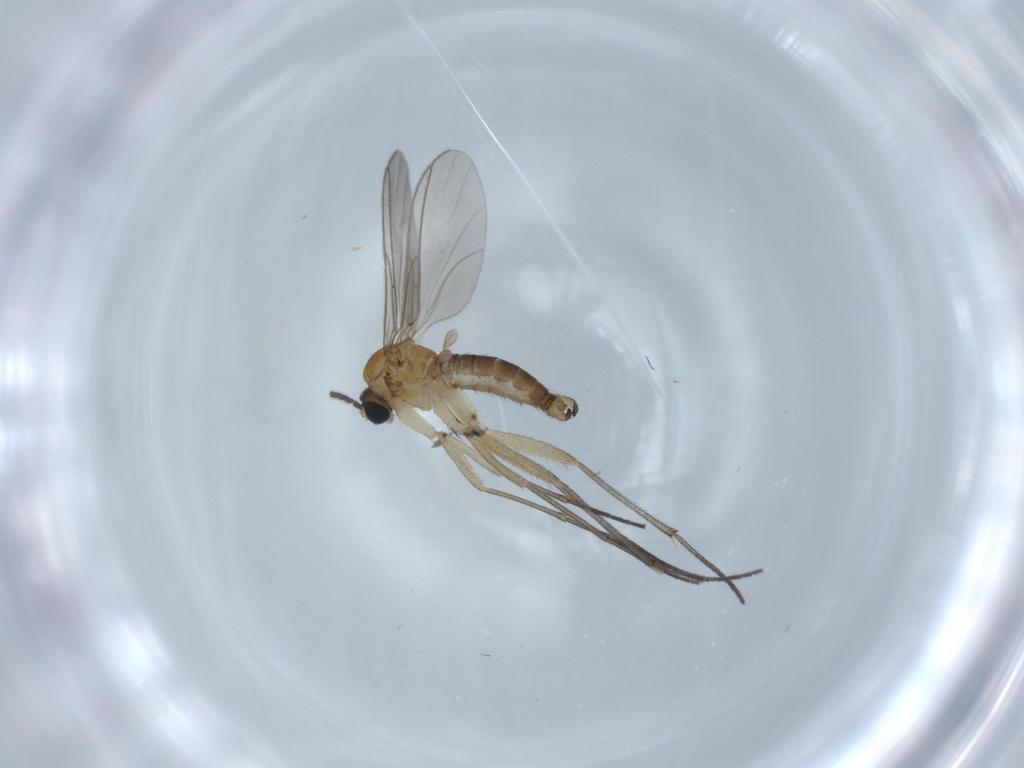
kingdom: Animalia
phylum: Arthropoda
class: Insecta
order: Diptera
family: Sciaridae
